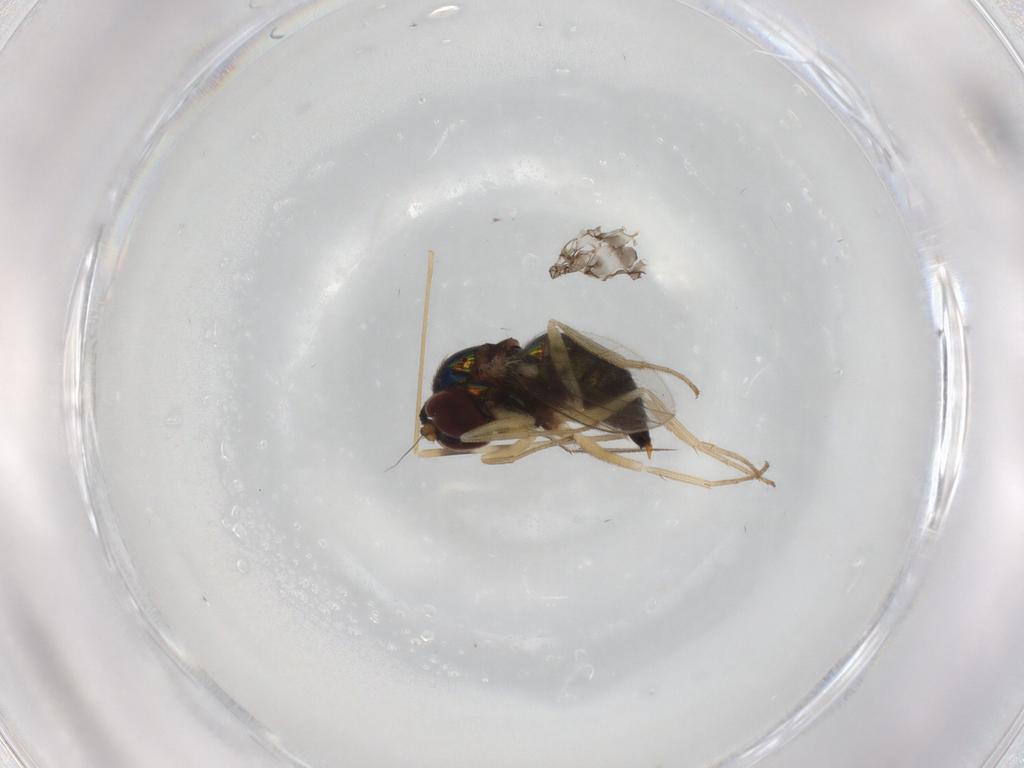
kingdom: Animalia
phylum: Arthropoda
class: Insecta
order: Diptera
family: Dolichopodidae
